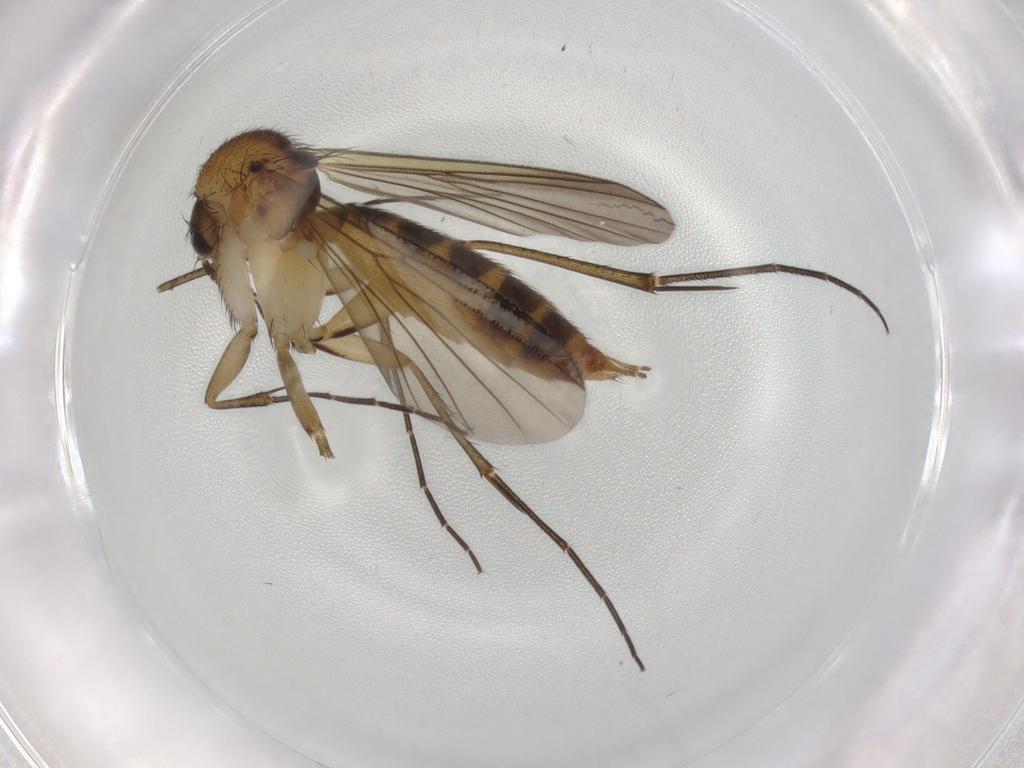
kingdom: Animalia
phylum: Arthropoda
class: Insecta
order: Diptera
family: Mycetophilidae
